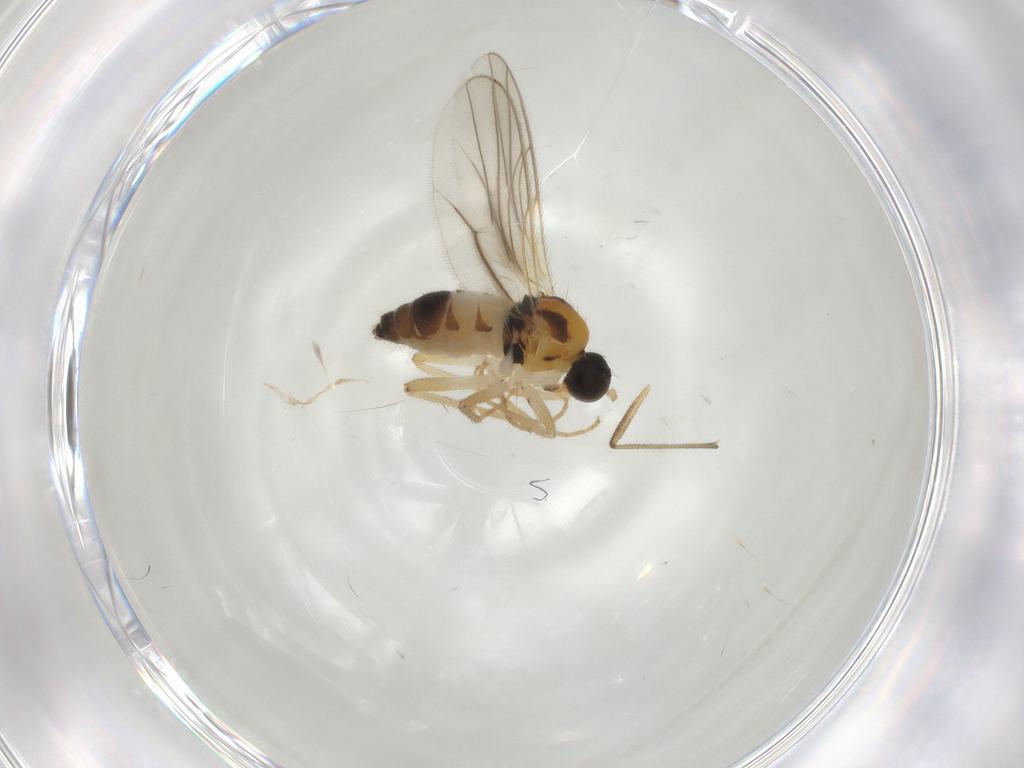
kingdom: Animalia
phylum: Arthropoda
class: Insecta
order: Diptera
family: Hybotidae
